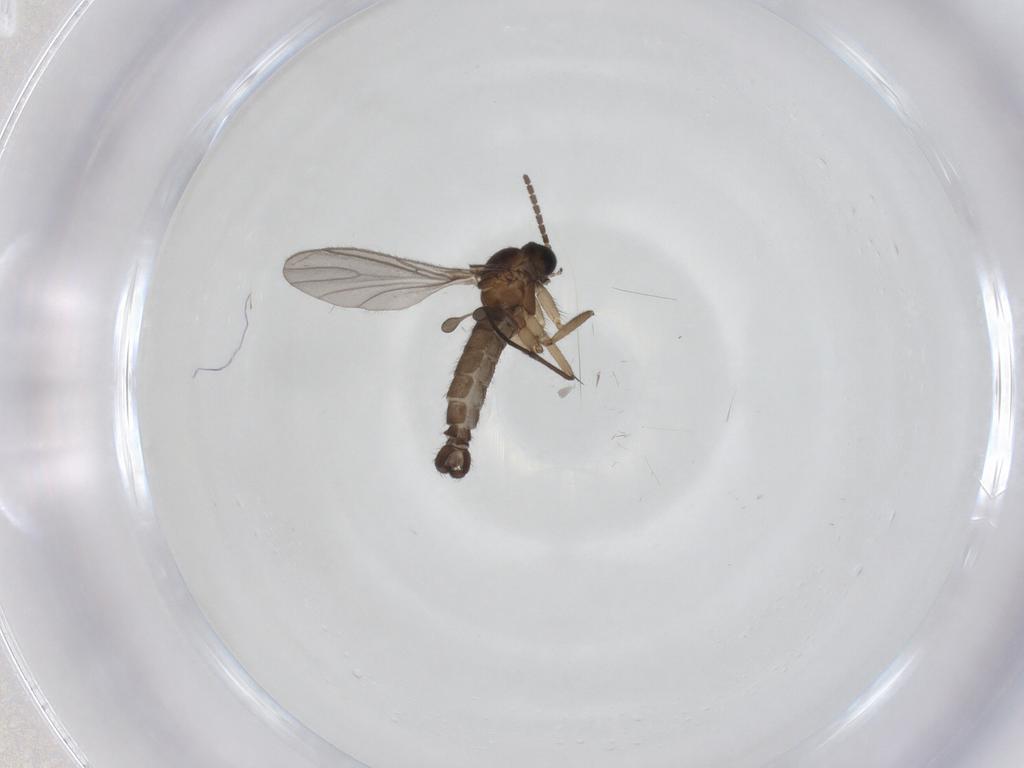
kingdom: Animalia
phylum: Arthropoda
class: Insecta
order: Diptera
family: Sciaridae
